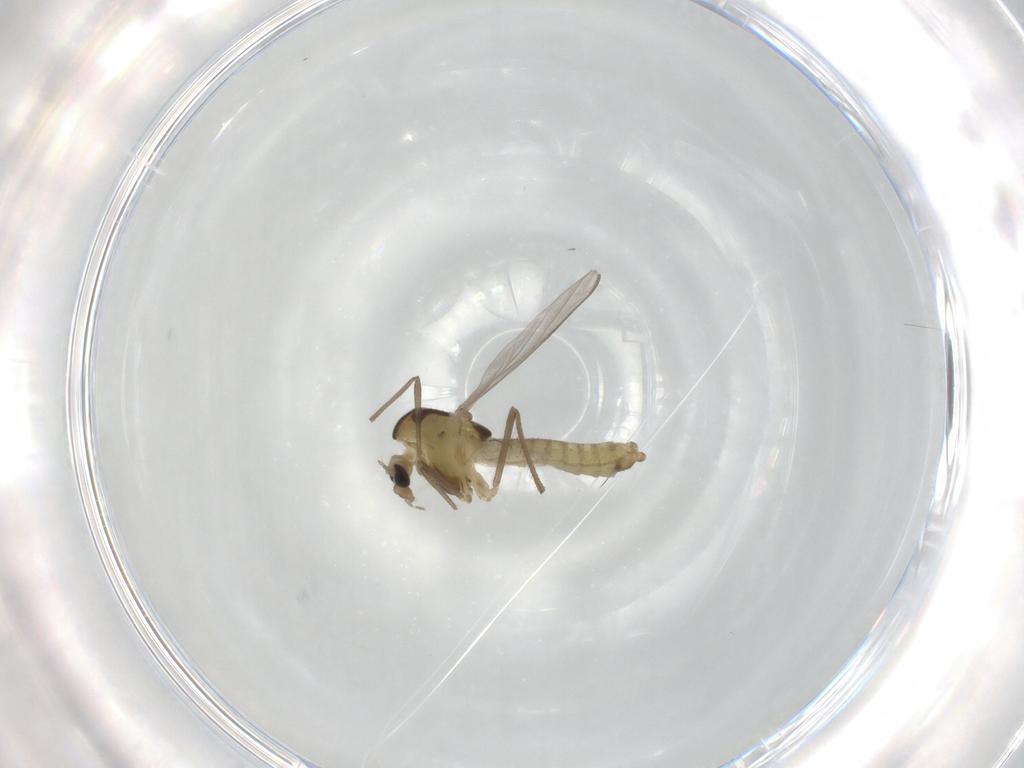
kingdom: Animalia
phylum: Arthropoda
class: Insecta
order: Diptera
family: Chironomidae
